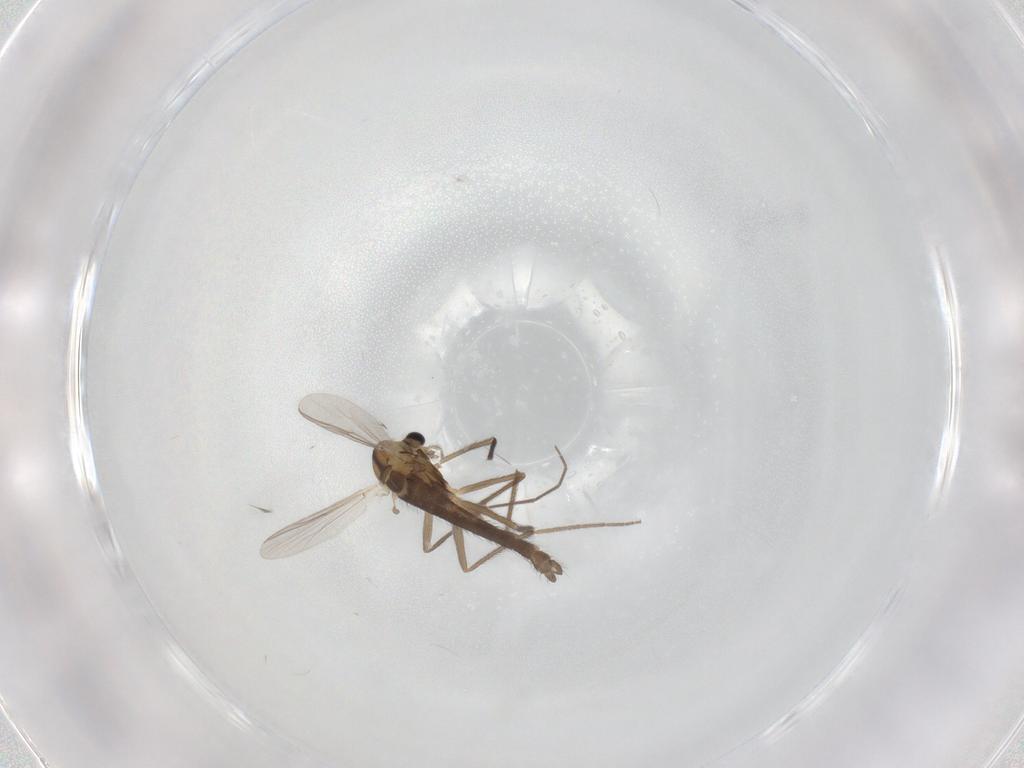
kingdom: Animalia
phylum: Arthropoda
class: Insecta
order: Diptera
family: Chironomidae
